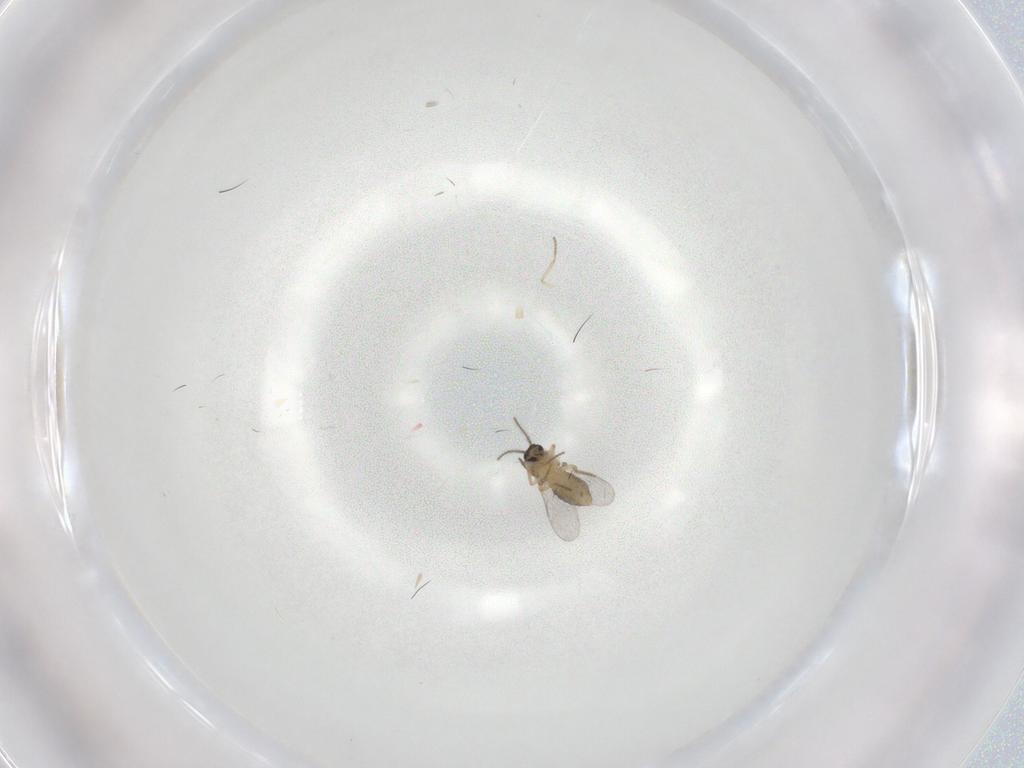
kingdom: Animalia
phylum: Arthropoda
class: Insecta
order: Diptera
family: Ceratopogonidae
